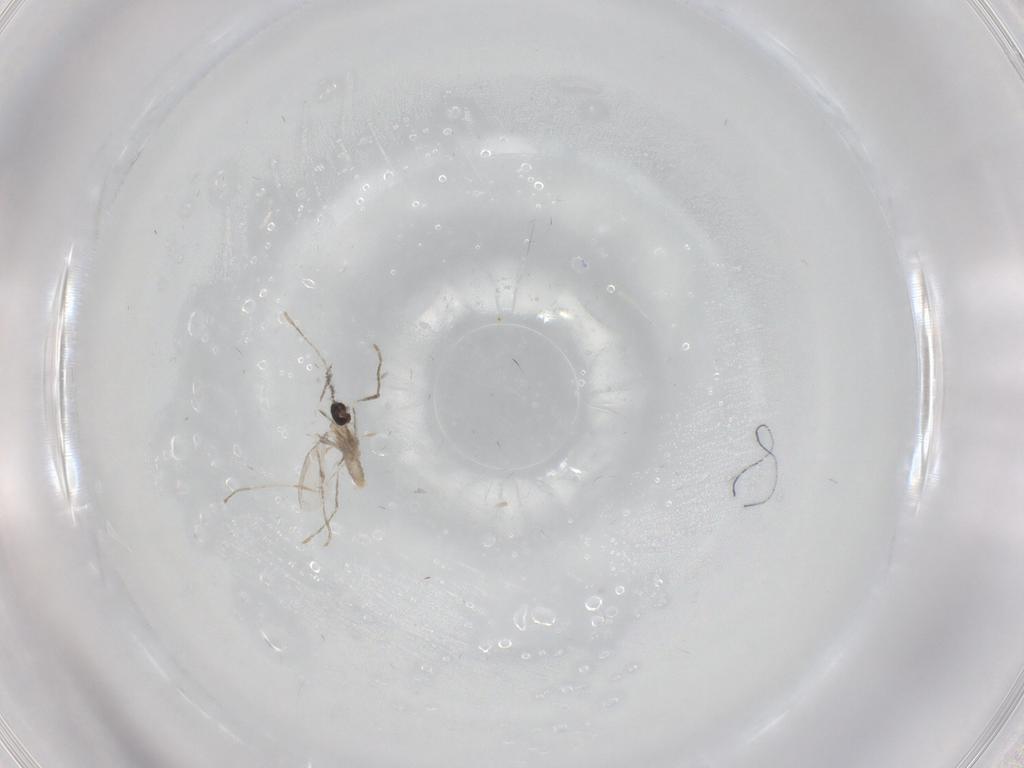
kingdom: Animalia
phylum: Arthropoda
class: Insecta
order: Diptera
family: Cecidomyiidae
